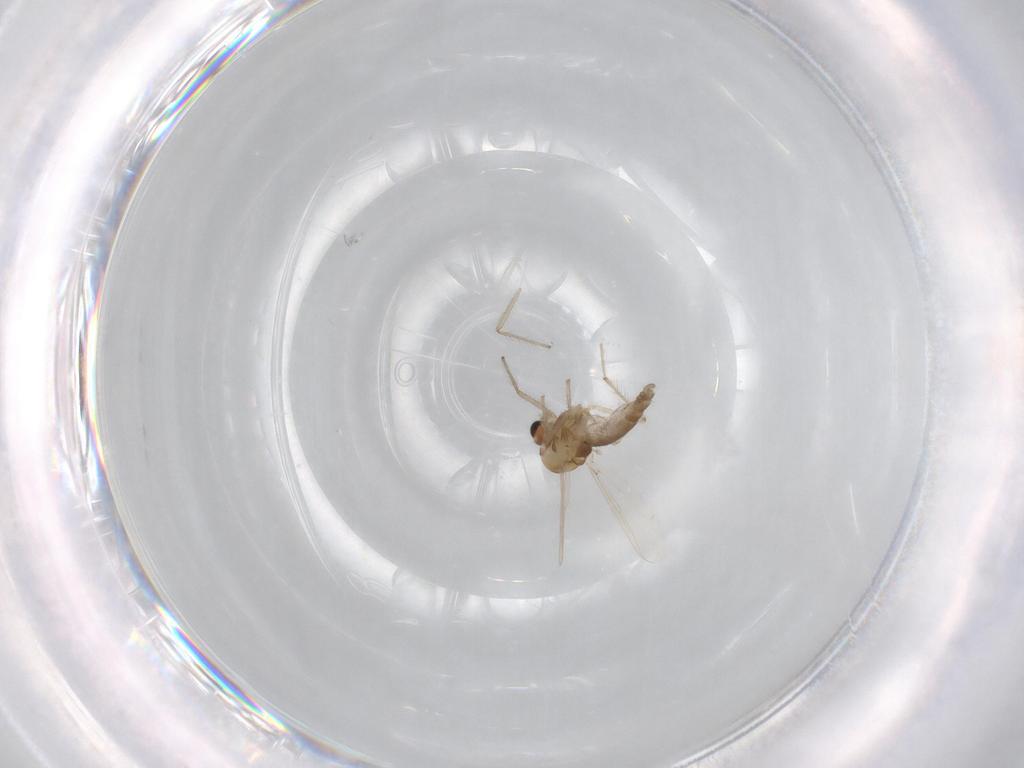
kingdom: Animalia
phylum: Arthropoda
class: Insecta
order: Diptera
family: Chironomidae
